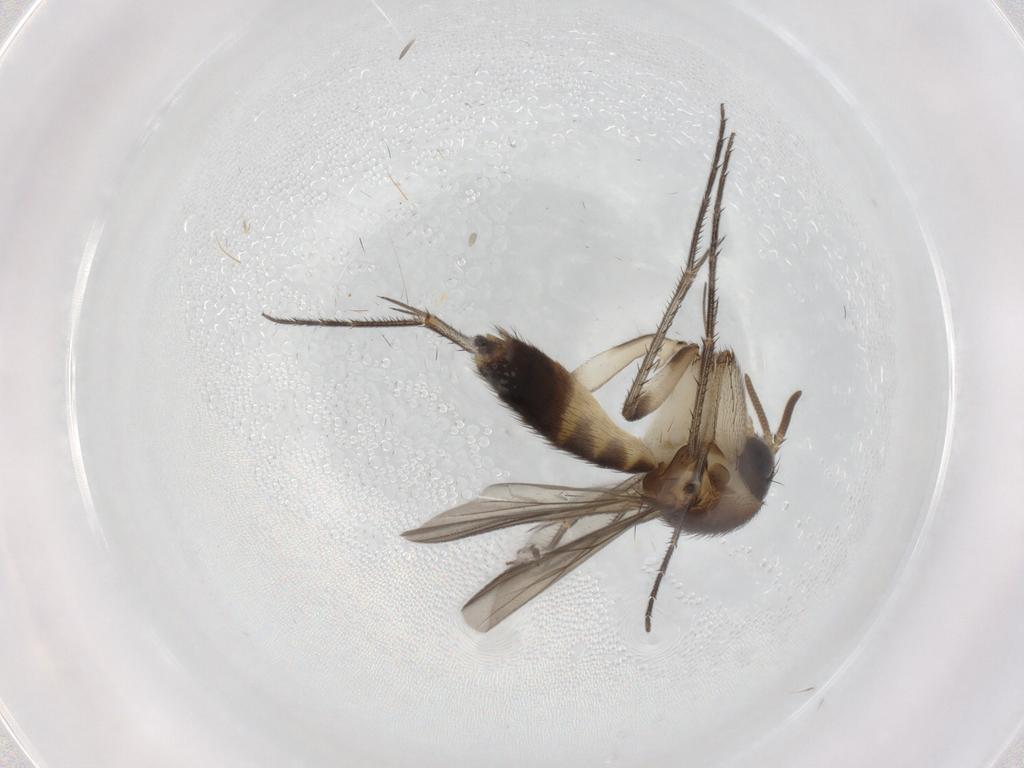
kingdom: Animalia
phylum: Arthropoda
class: Insecta
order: Diptera
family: Mycetophilidae
